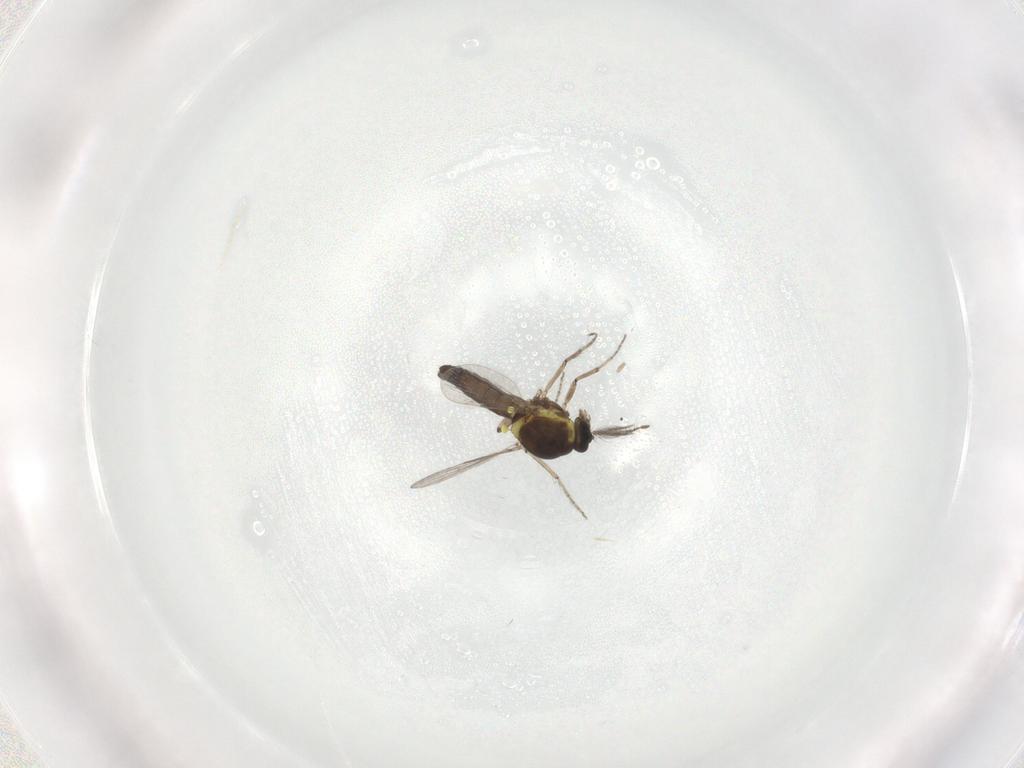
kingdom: Animalia
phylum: Arthropoda
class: Insecta
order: Diptera
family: Ceratopogonidae
